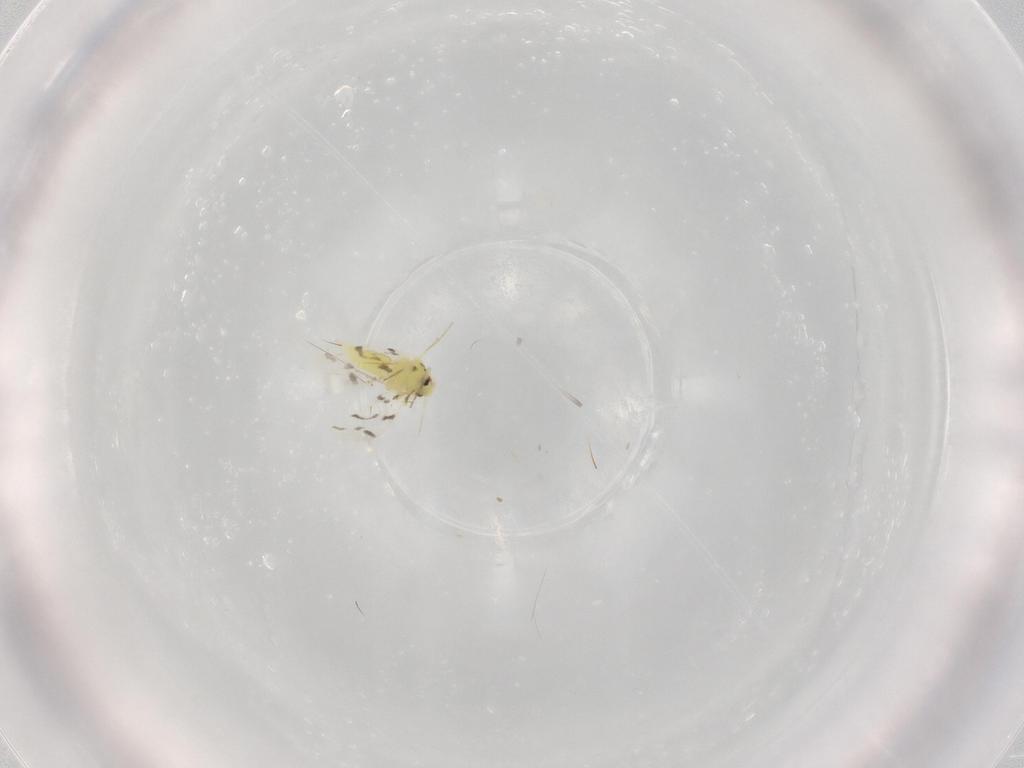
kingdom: Animalia
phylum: Arthropoda
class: Insecta
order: Hemiptera
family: Aleyrodidae
